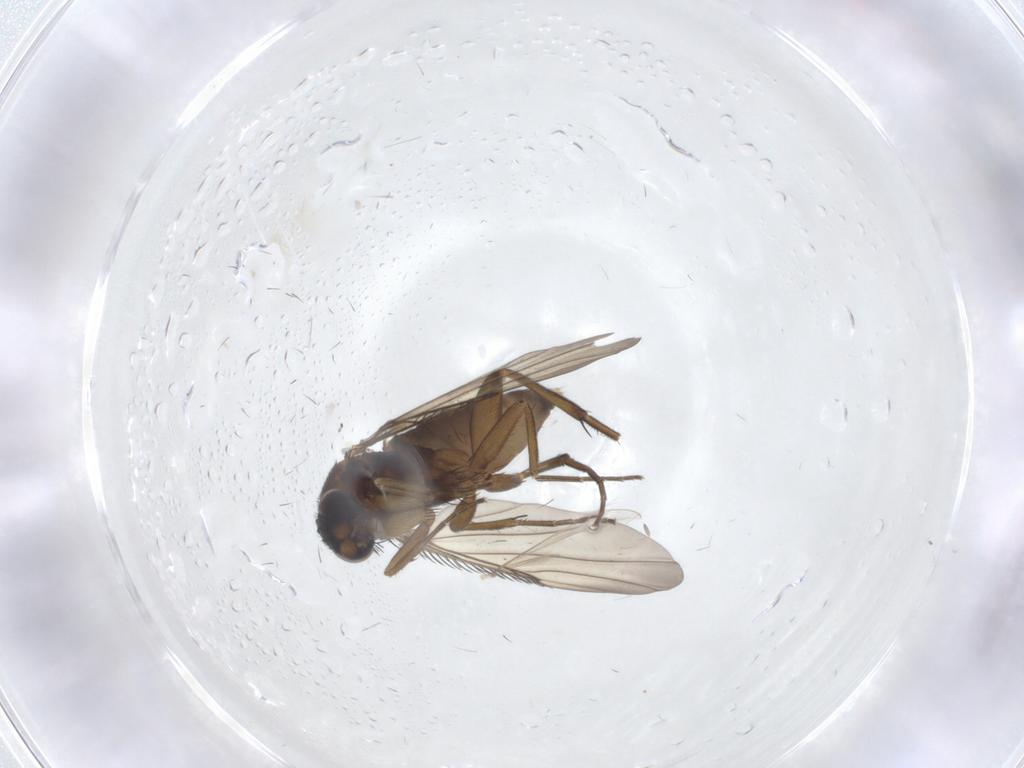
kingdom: Animalia
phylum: Arthropoda
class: Insecta
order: Diptera
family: Phoridae
